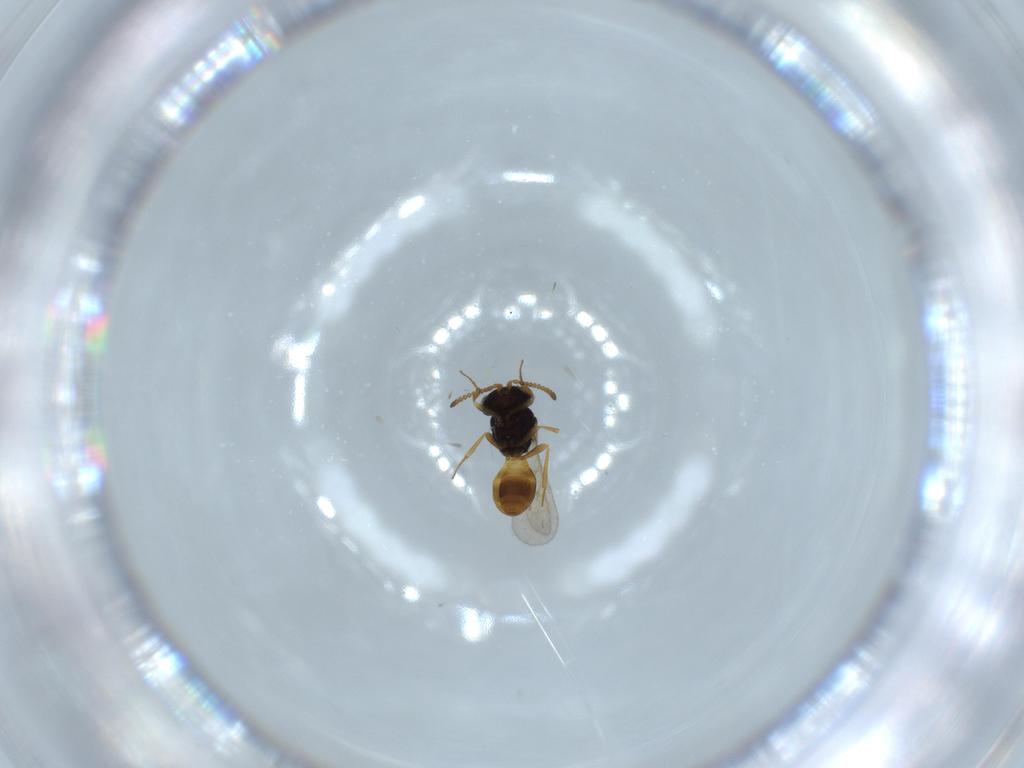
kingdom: Animalia
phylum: Arthropoda
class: Insecta
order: Hymenoptera
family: Scelionidae
